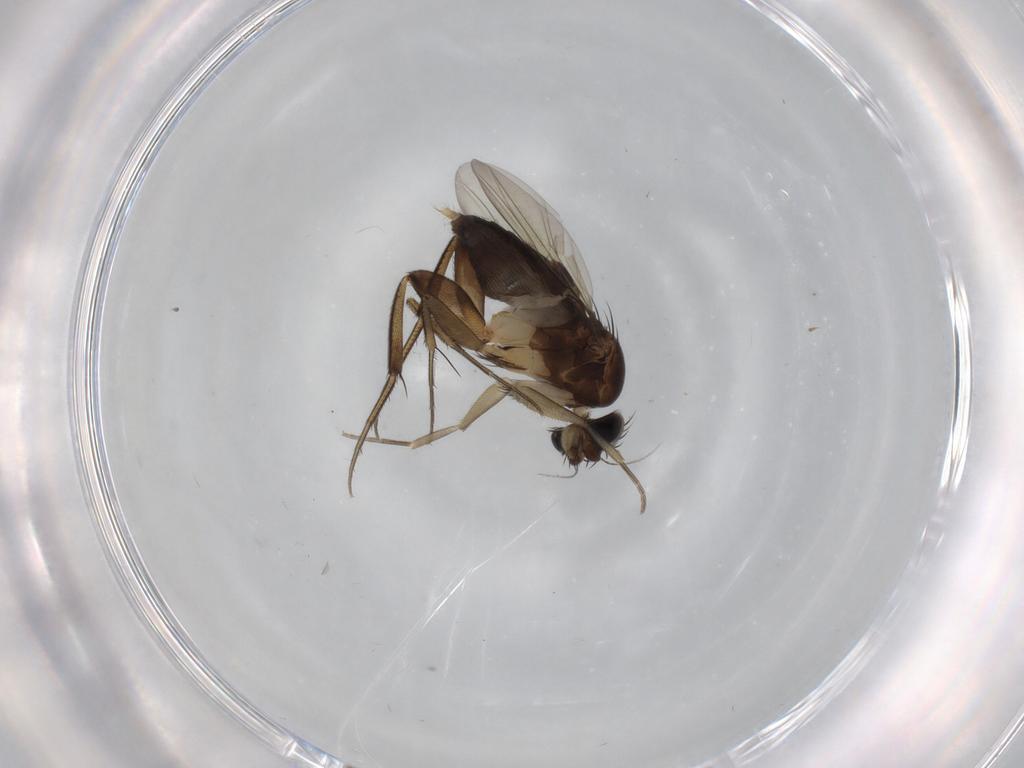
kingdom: Animalia
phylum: Arthropoda
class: Insecta
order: Diptera
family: Phoridae
